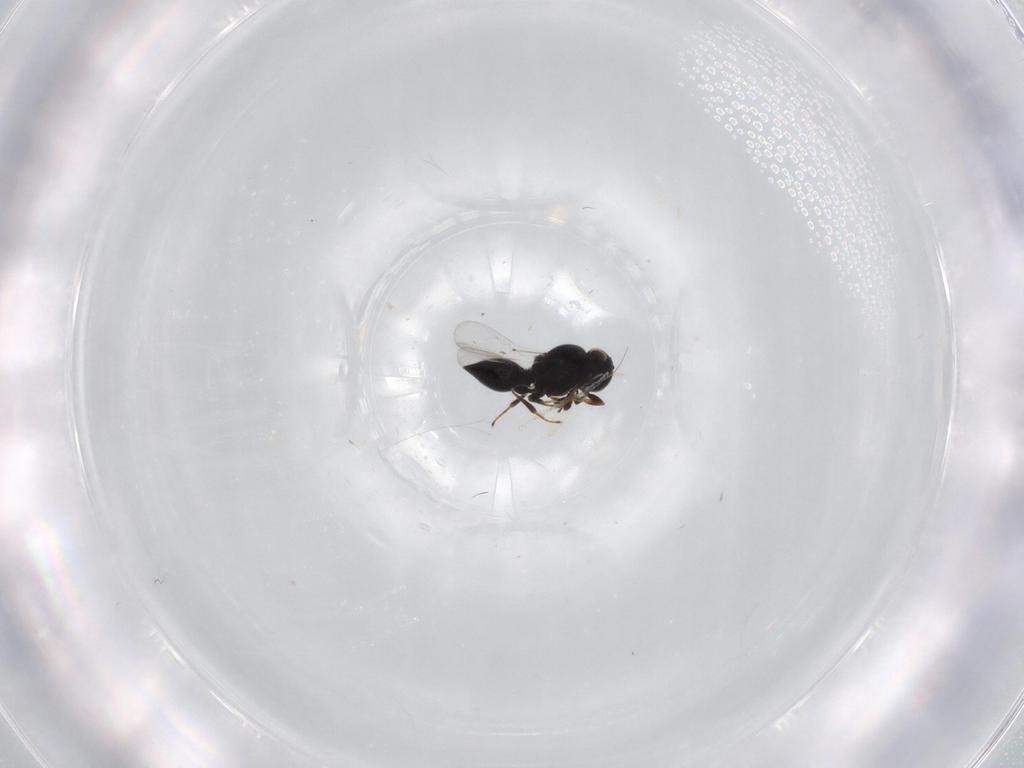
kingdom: Animalia
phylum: Arthropoda
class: Insecta
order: Hymenoptera
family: Platygastridae
